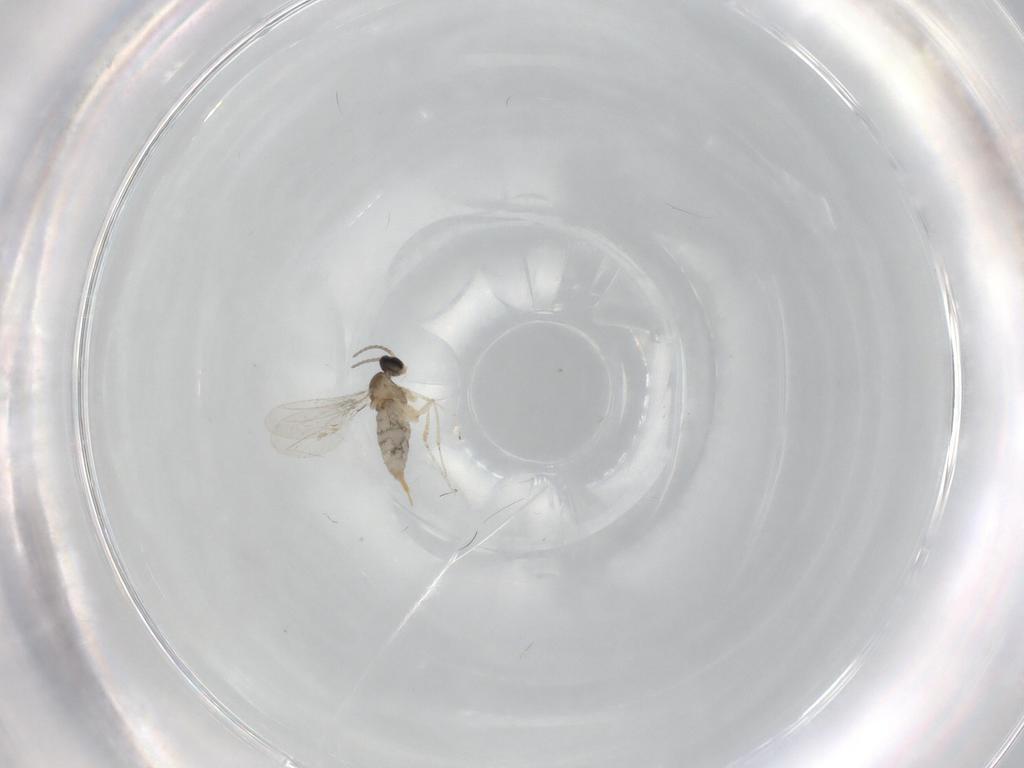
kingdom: Animalia
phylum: Arthropoda
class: Insecta
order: Diptera
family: Cecidomyiidae
